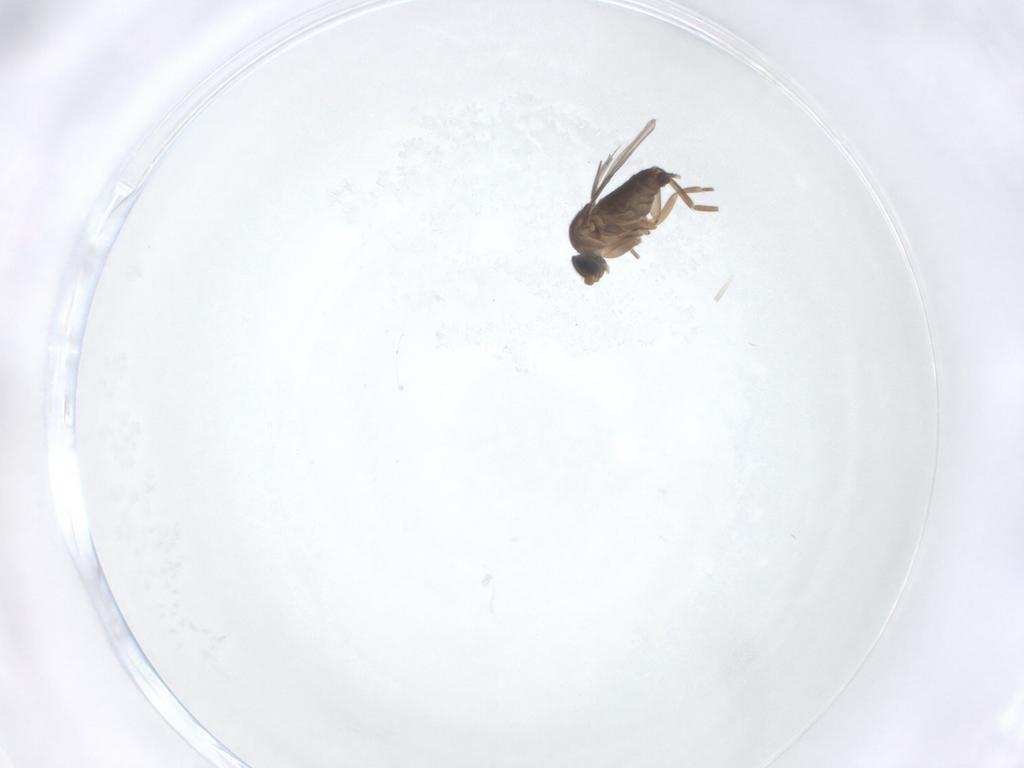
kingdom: Animalia
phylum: Arthropoda
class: Insecta
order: Diptera
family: Phoridae
